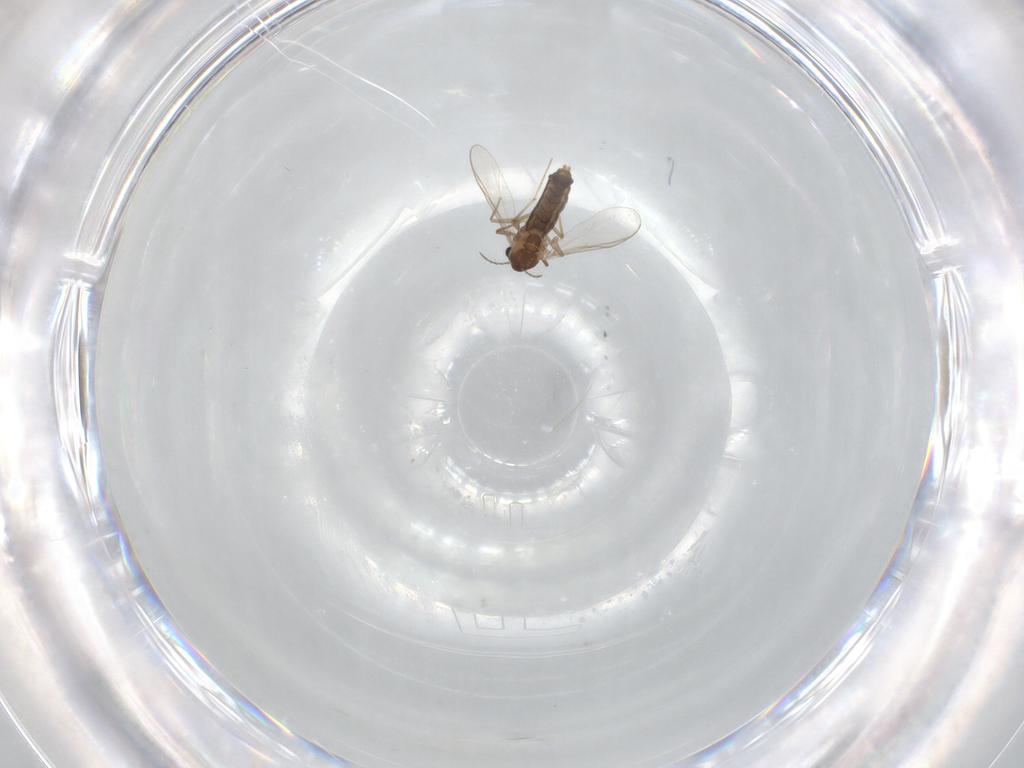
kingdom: Animalia
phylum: Arthropoda
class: Insecta
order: Diptera
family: Chironomidae
